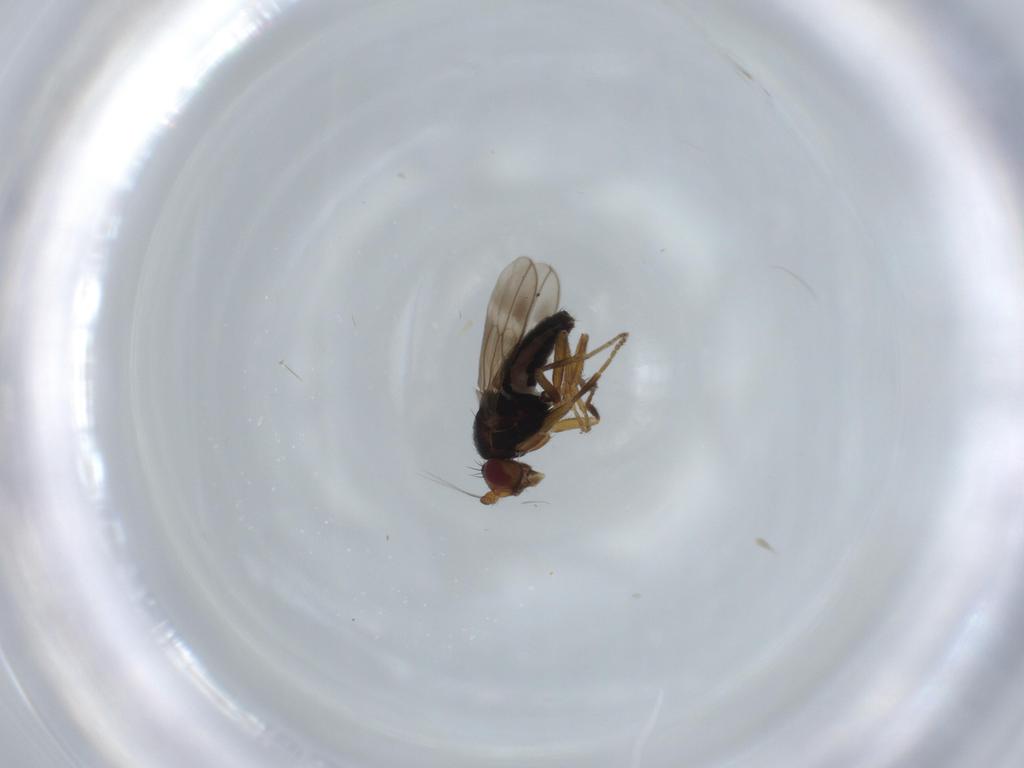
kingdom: Animalia
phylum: Arthropoda
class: Insecta
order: Diptera
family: Sphaeroceridae
